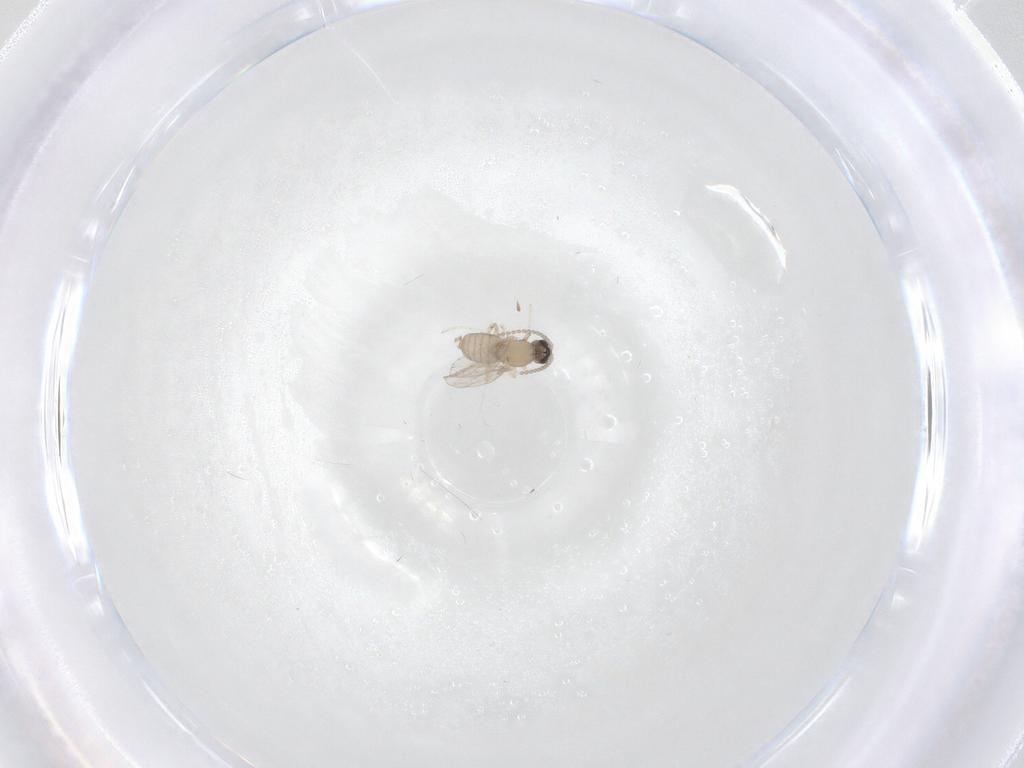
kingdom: Animalia
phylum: Arthropoda
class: Insecta
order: Diptera
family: Cecidomyiidae
